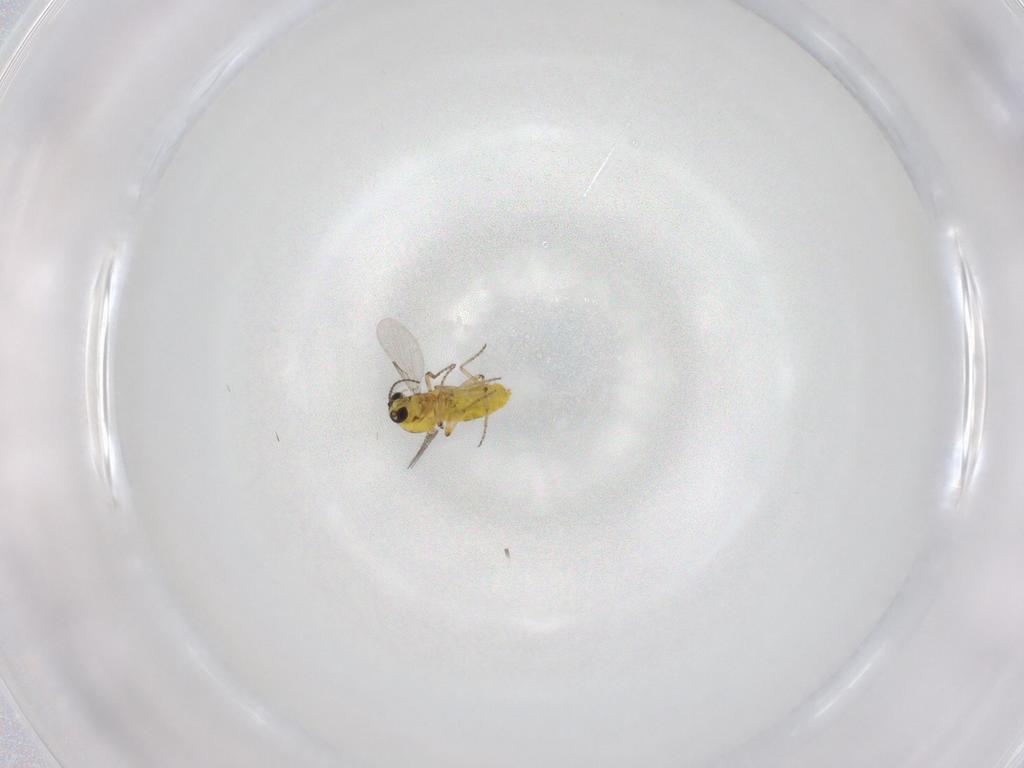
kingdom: Animalia
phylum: Arthropoda
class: Insecta
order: Diptera
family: Ceratopogonidae
